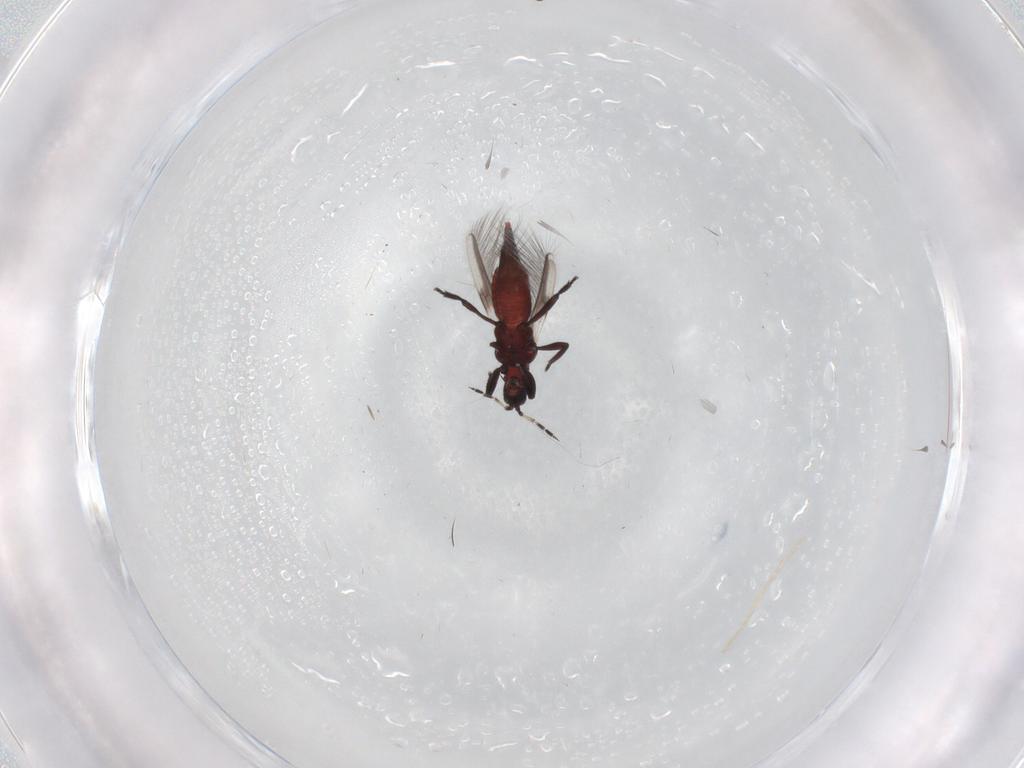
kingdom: Animalia
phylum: Arthropoda
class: Insecta
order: Thysanoptera
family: Aeolothripidae
